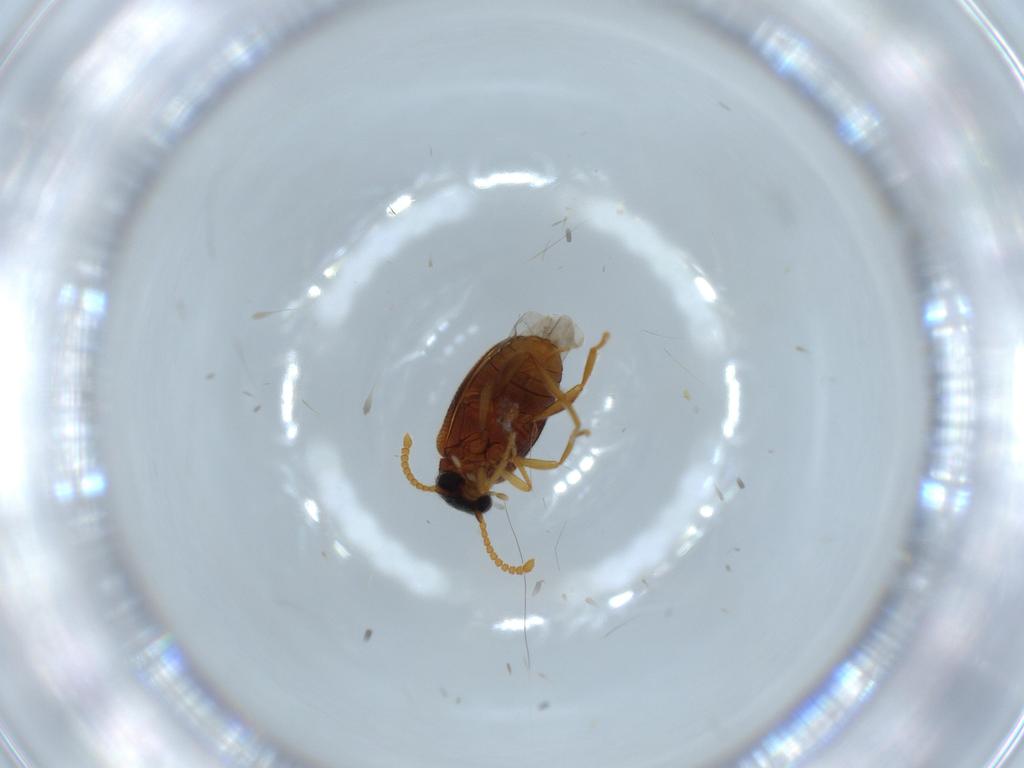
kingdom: Animalia
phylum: Arthropoda
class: Insecta
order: Coleoptera
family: Aderidae
